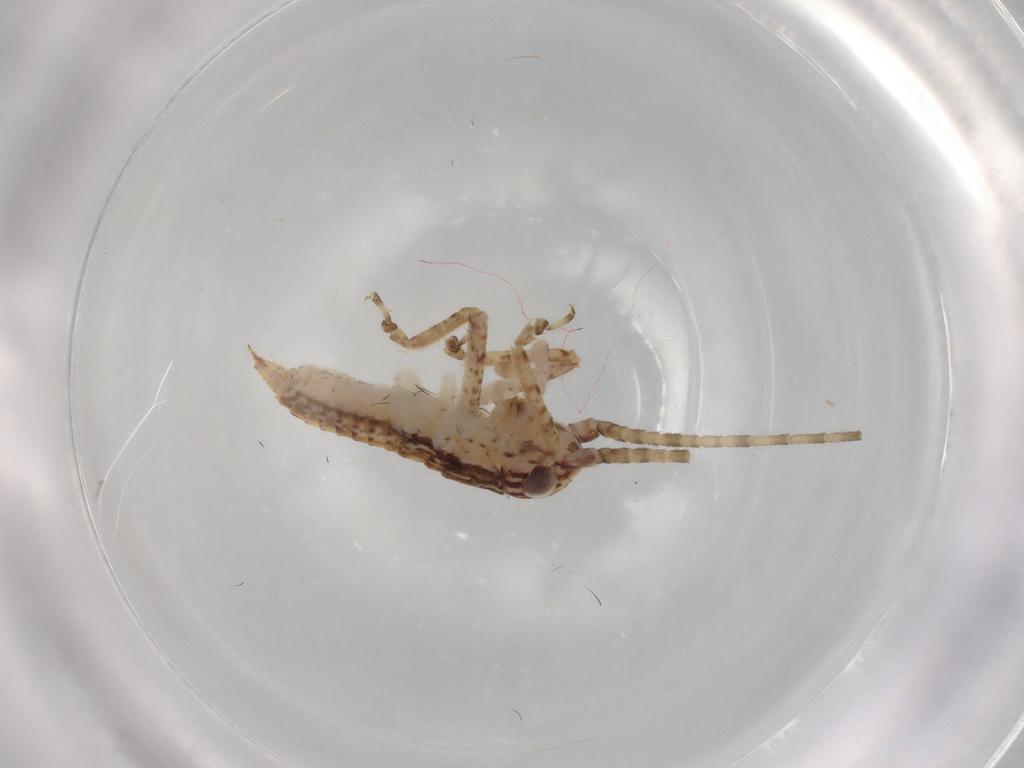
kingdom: Animalia
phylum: Arthropoda
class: Insecta
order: Orthoptera
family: Gryllidae
